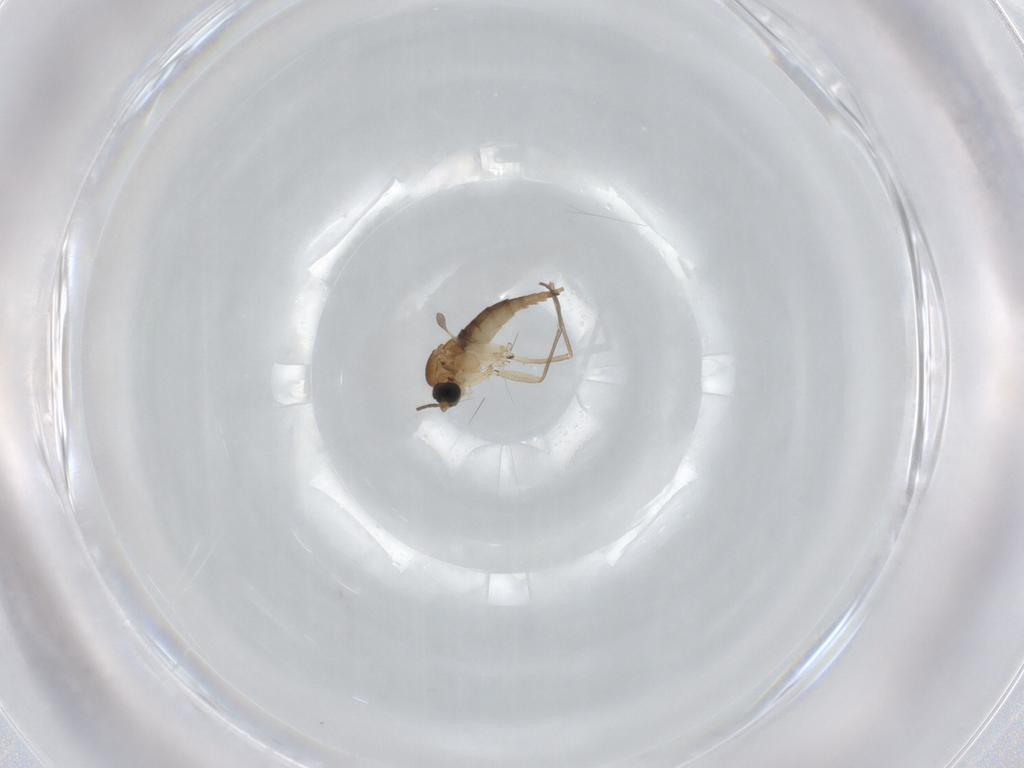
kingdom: Animalia
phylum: Arthropoda
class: Insecta
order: Diptera
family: Sciaridae
